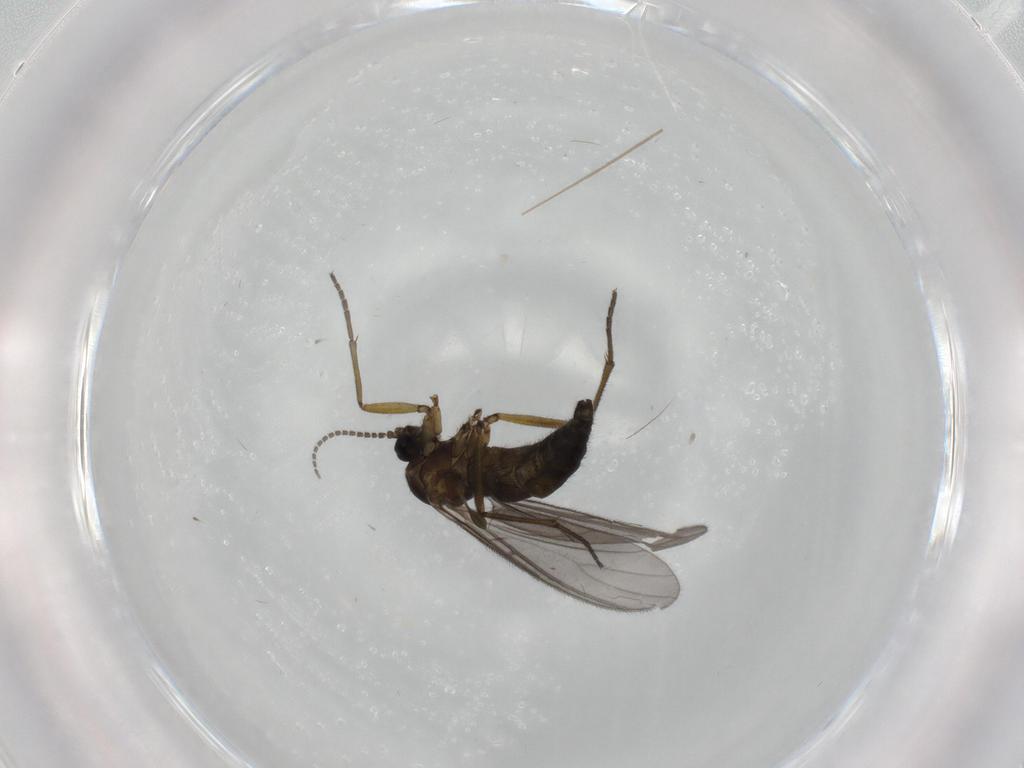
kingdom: Animalia
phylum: Arthropoda
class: Insecta
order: Diptera
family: Sciaridae
